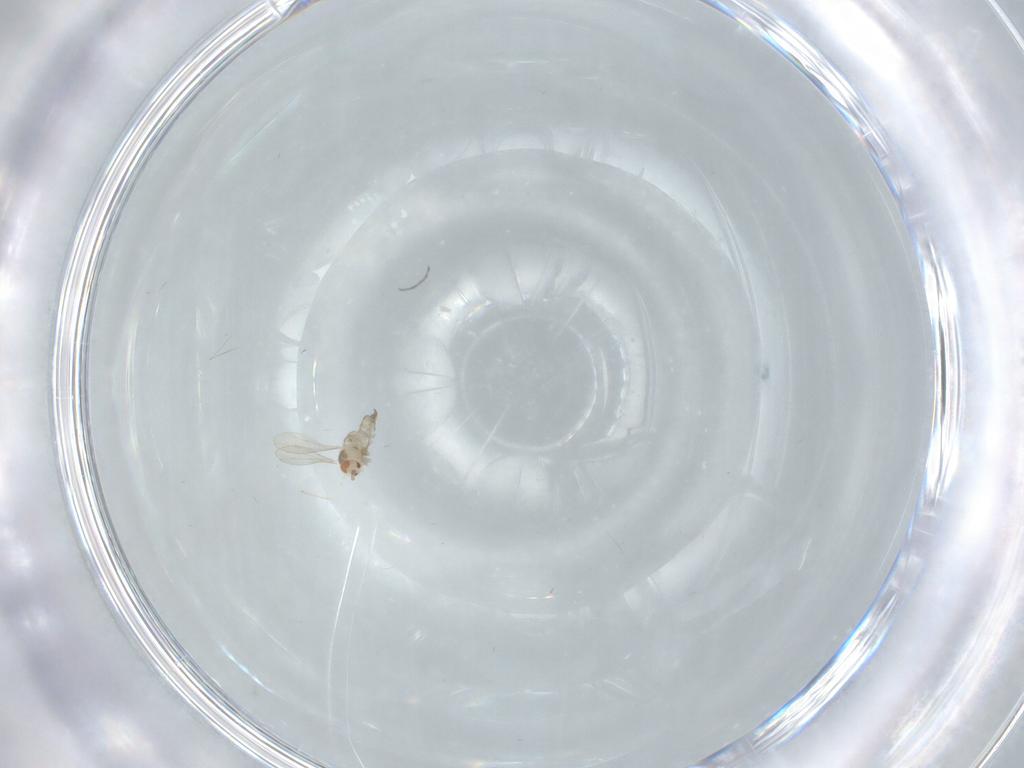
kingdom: Animalia
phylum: Arthropoda
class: Insecta
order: Diptera
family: Cecidomyiidae
